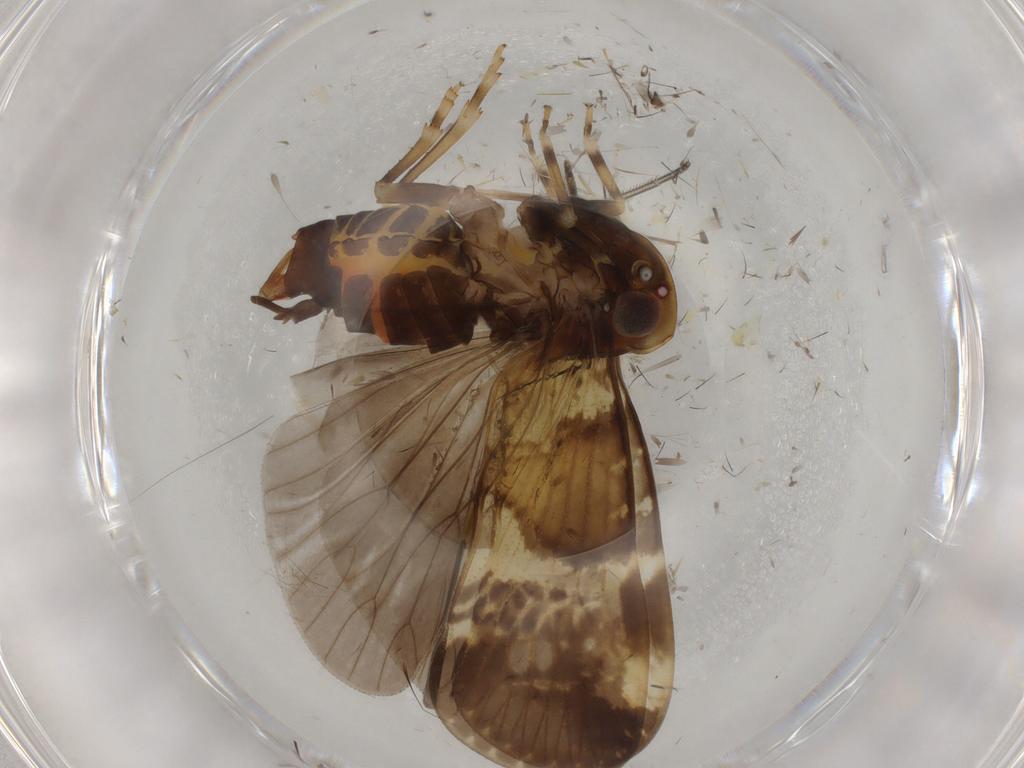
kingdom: Animalia
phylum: Arthropoda
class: Insecta
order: Hemiptera
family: Cixiidae
